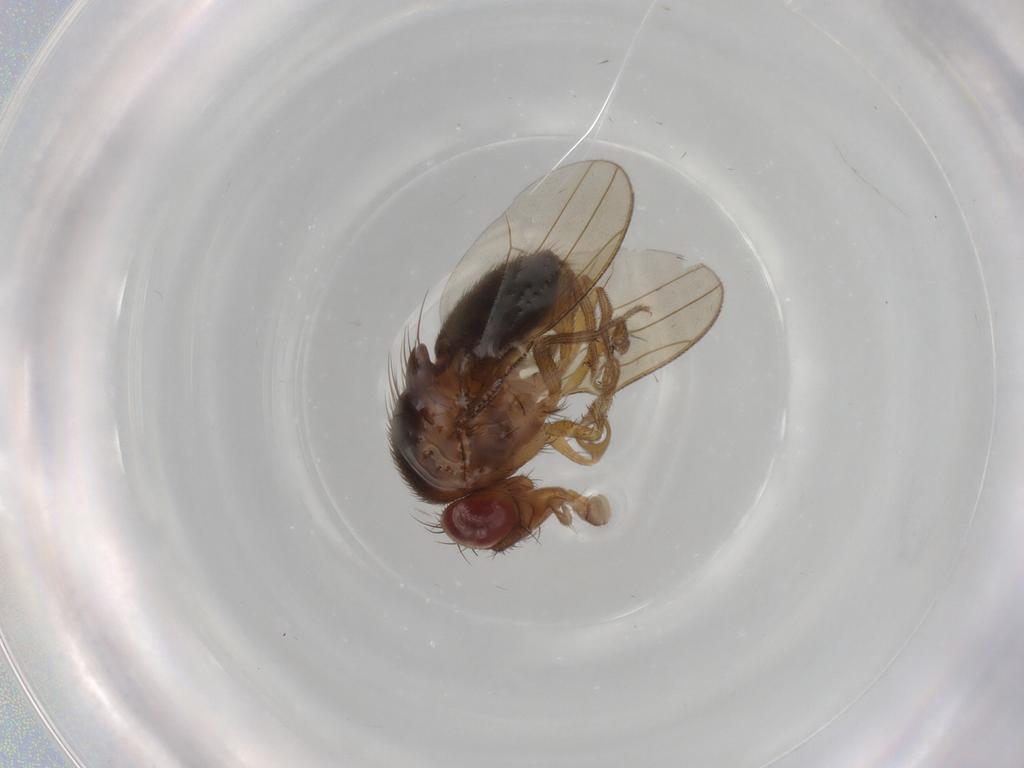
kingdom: Animalia
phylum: Arthropoda
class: Insecta
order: Diptera
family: Drosophilidae
